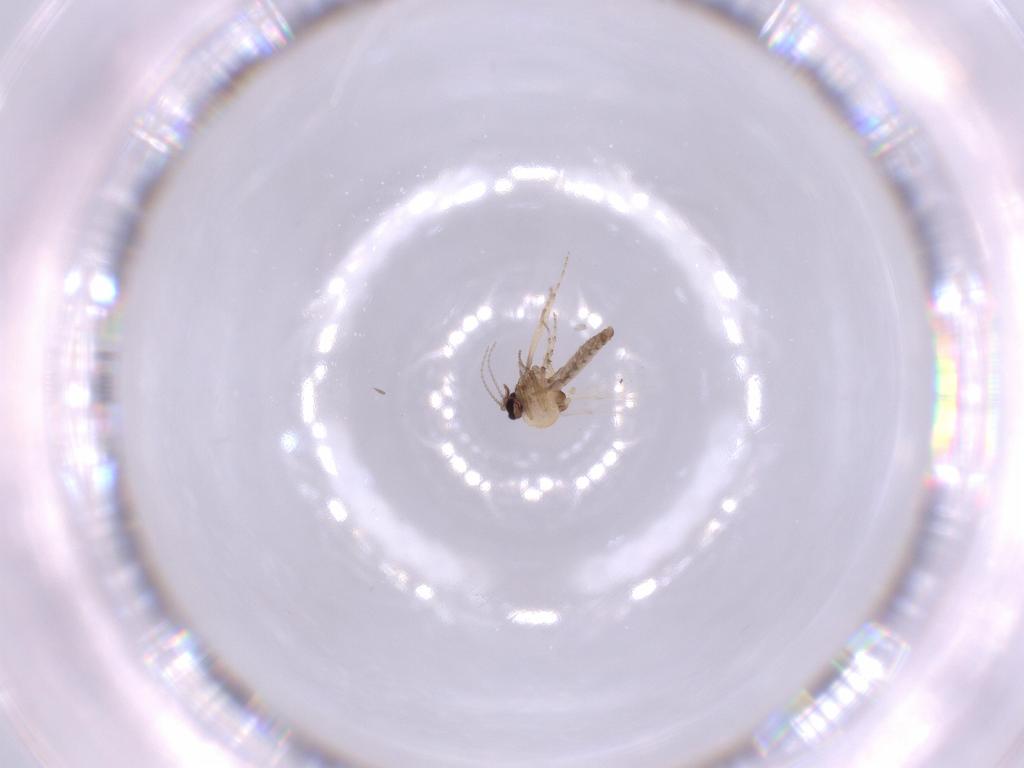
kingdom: Animalia
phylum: Arthropoda
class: Insecta
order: Diptera
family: Ceratopogonidae
